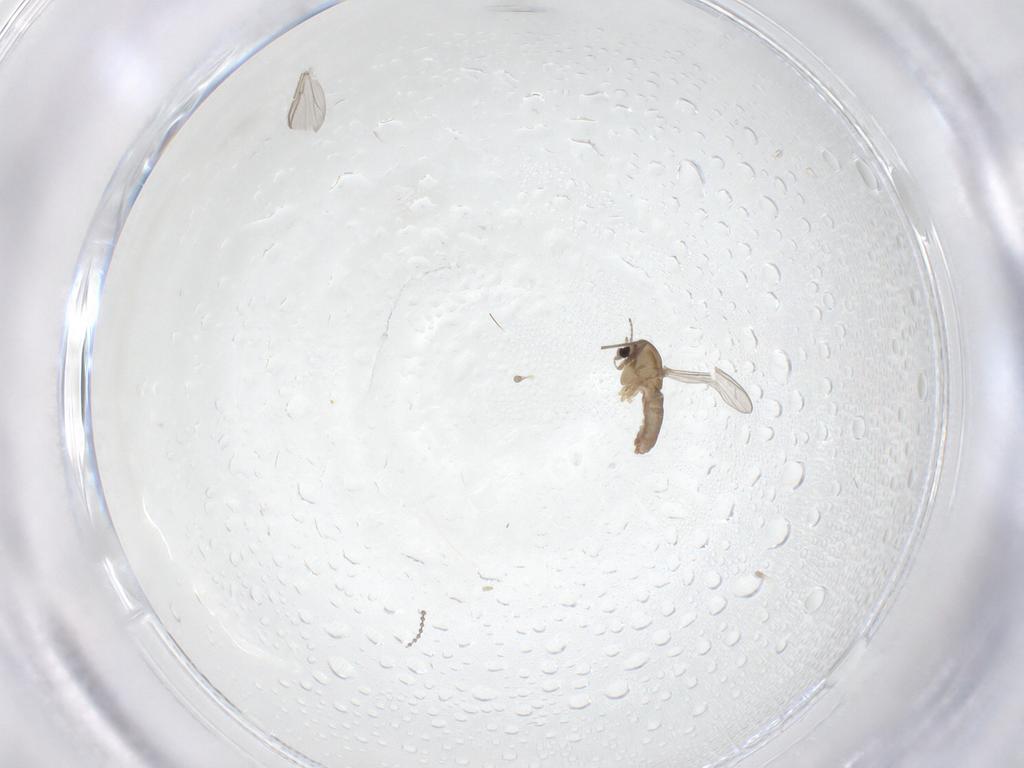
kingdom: Animalia
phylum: Arthropoda
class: Insecta
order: Diptera
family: Chironomidae
